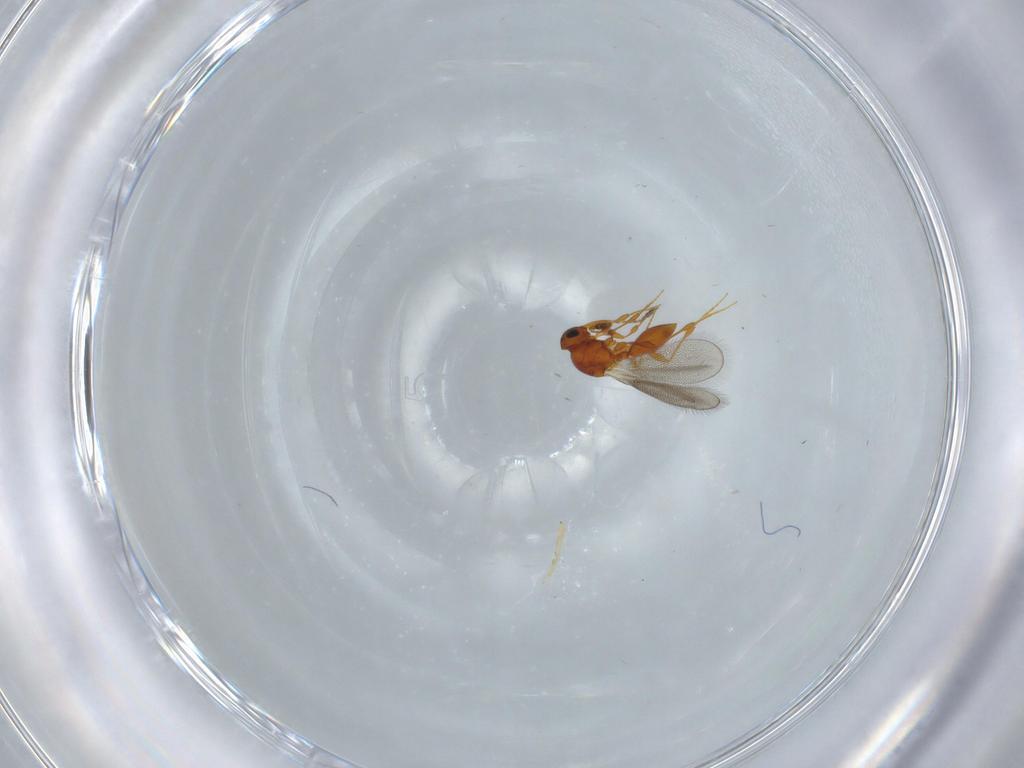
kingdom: Animalia
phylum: Arthropoda
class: Insecta
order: Hymenoptera
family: Platygastridae
